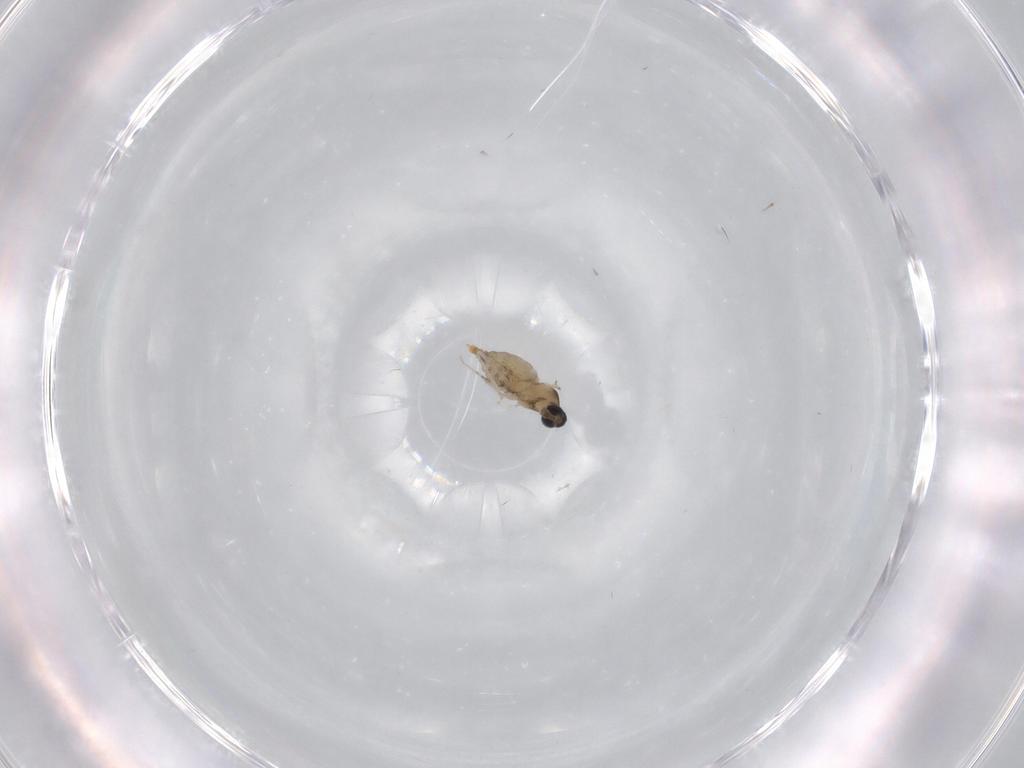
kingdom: Animalia
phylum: Arthropoda
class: Insecta
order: Diptera
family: Cecidomyiidae
